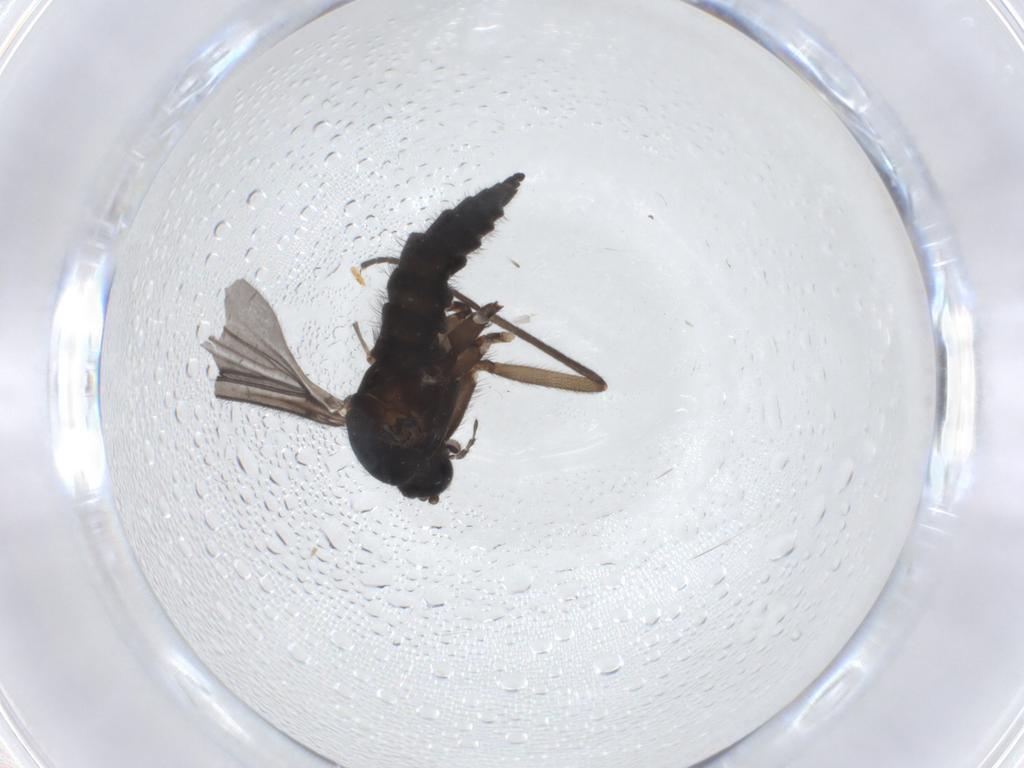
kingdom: Animalia
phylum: Arthropoda
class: Insecta
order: Diptera
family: Sciaridae
